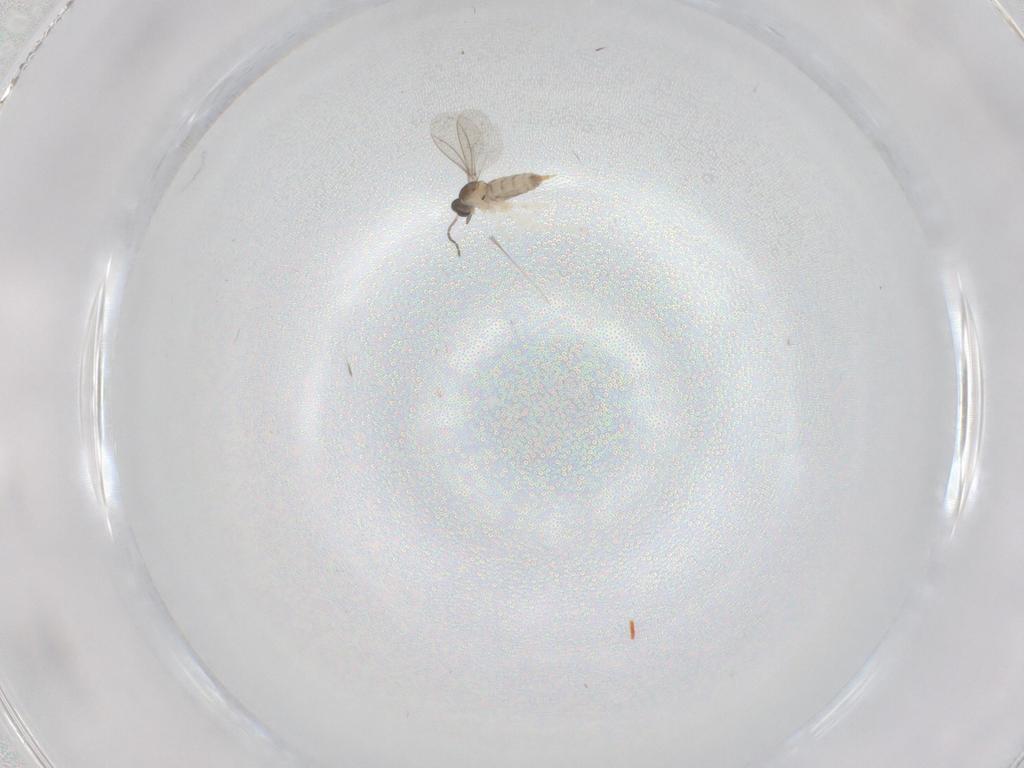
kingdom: Animalia
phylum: Arthropoda
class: Insecta
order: Diptera
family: Cecidomyiidae
